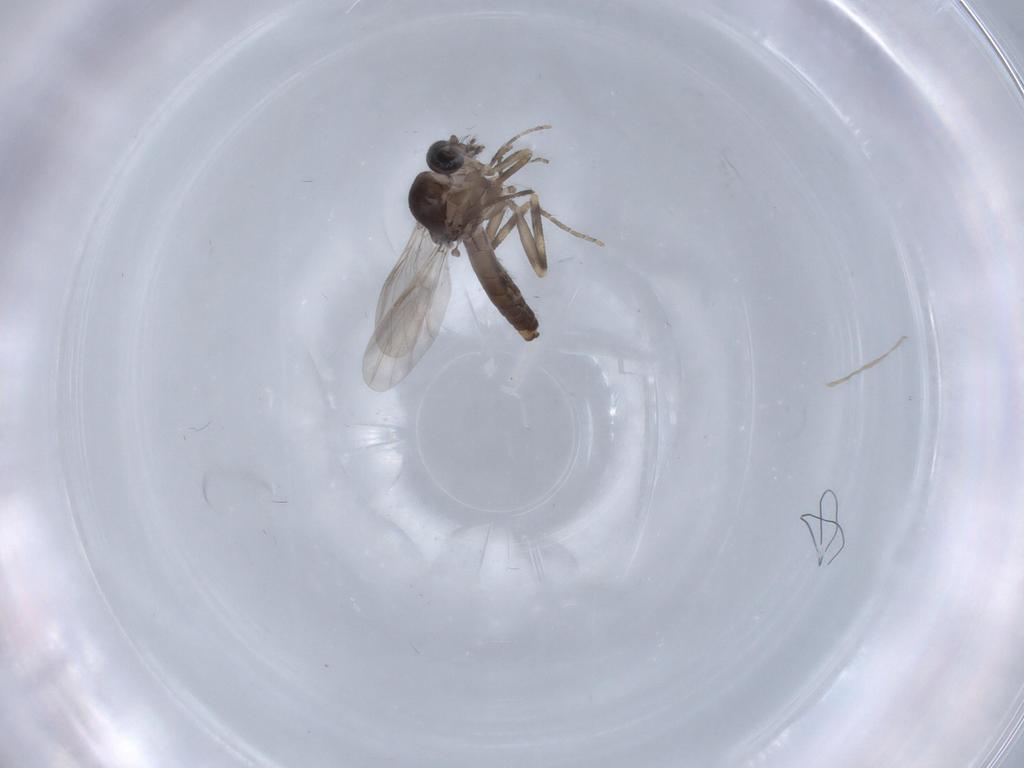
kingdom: Animalia
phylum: Arthropoda
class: Insecta
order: Diptera
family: Ceratopogonidae
